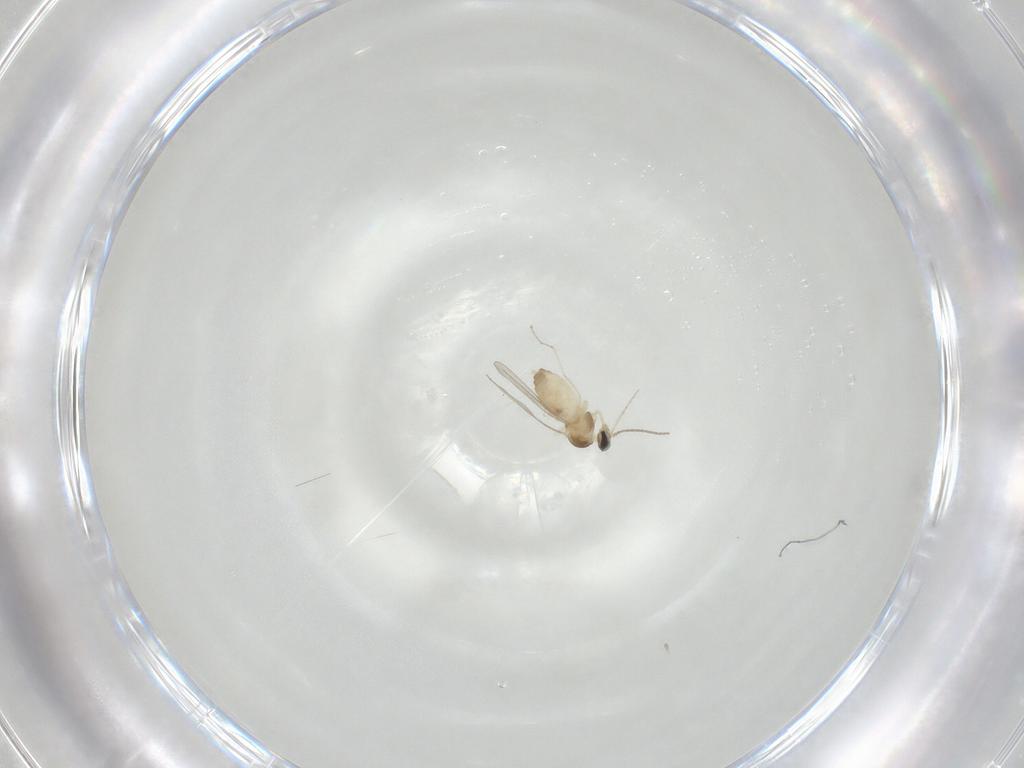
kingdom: Animalia
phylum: Arthropoda
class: Insecta
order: Diptera
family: Cecidomyiidae
